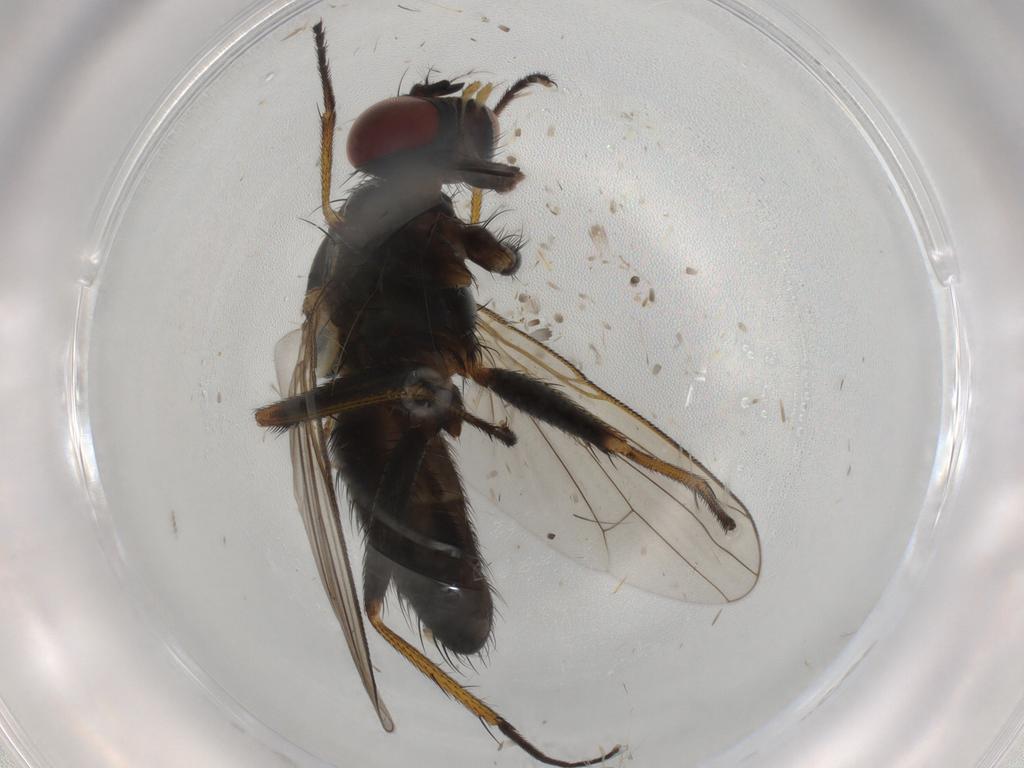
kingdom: Animalia
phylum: Arthropoda
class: Insecta
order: Diptera
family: Muscidae
